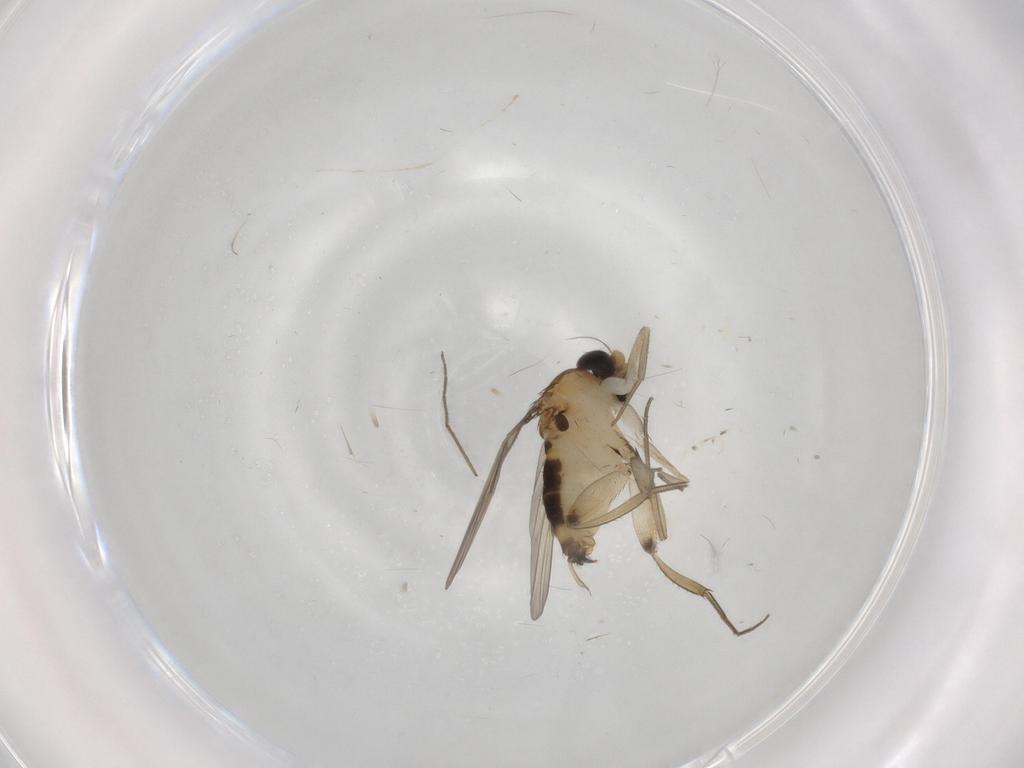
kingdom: Animalia
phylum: Arthropoda
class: Insecta
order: Diptera
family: Phoridae
